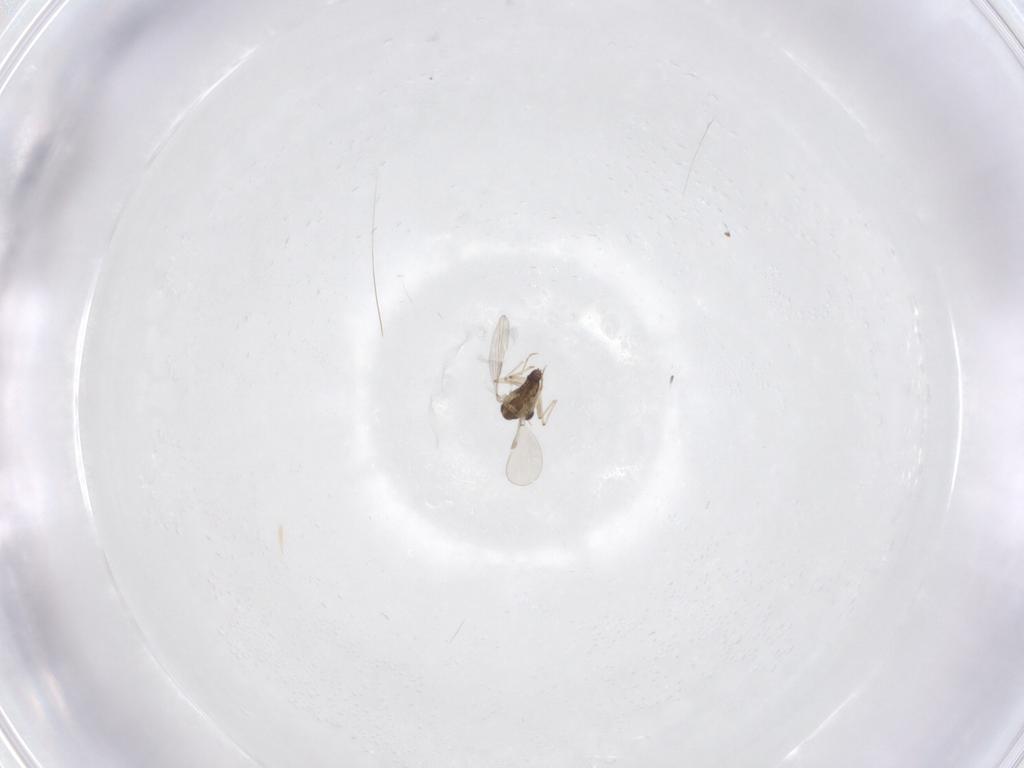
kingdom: Animalia
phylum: Arthropoda
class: Insecta
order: Diptera
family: Chironomidae
